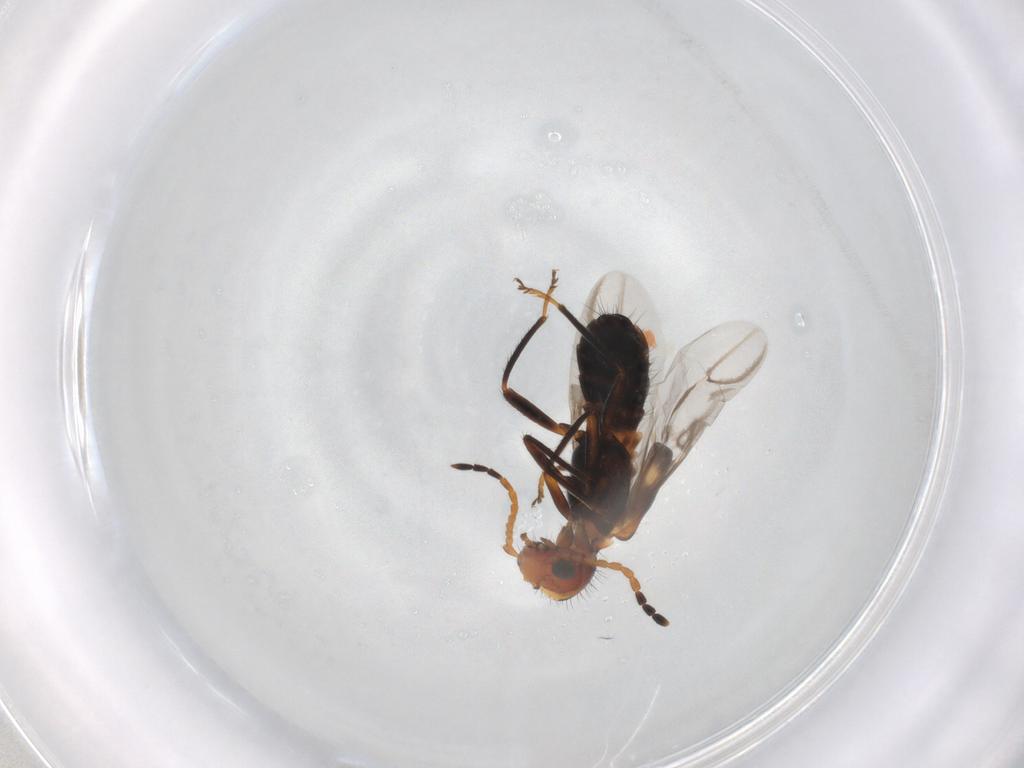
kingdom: Animalia
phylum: Arthropoda
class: Insecta
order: Coleoptera
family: Melyridae
